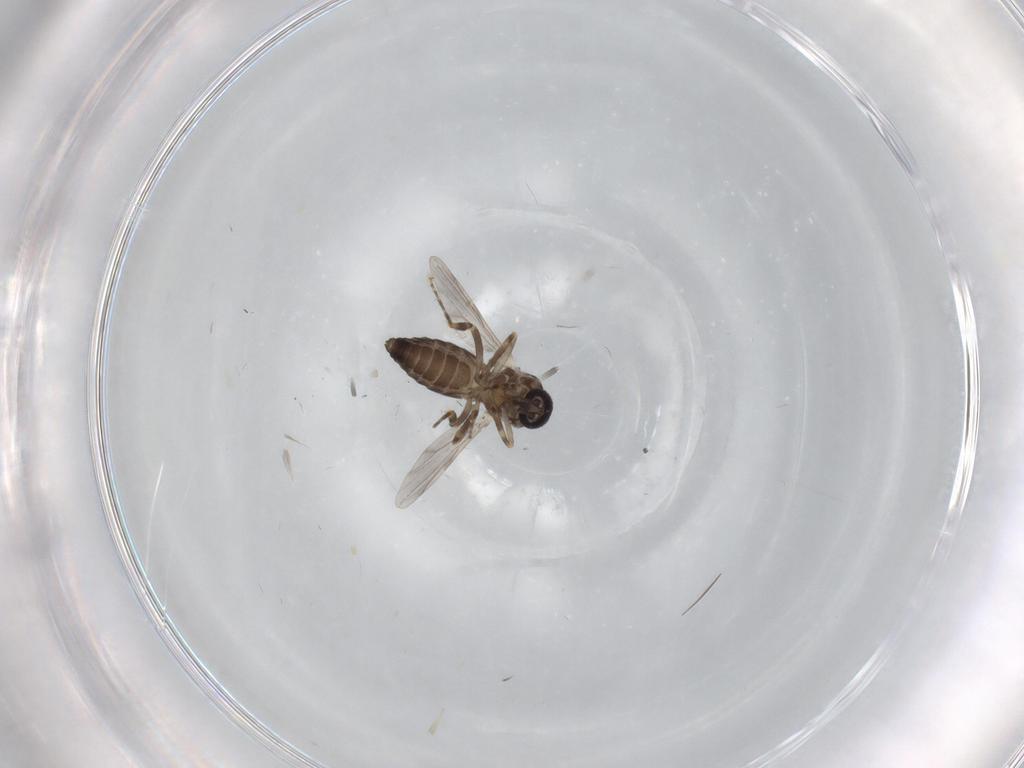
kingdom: Animalia
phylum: Arthropoda
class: Insecta
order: Diptera
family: Ceratopogonidae
